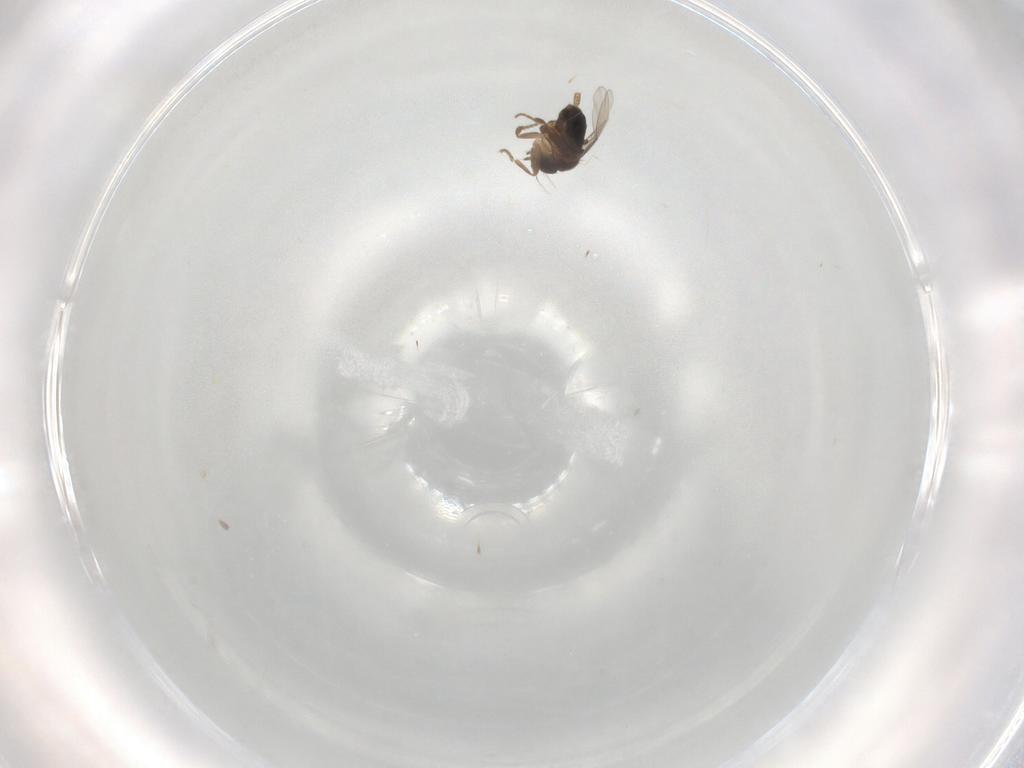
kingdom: Animalia
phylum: Arthropoda
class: Insecta
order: Diptera
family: Phoridae
